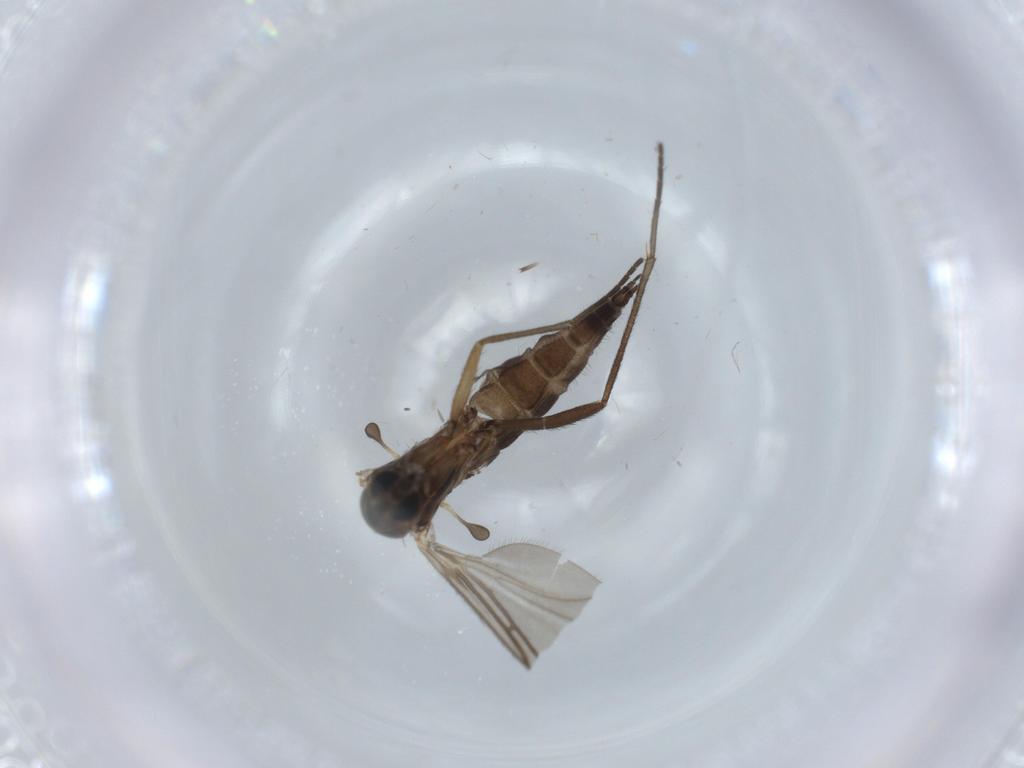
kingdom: Animalia
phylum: Arthropoda
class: Insecta
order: Diptera
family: Sciaridae
